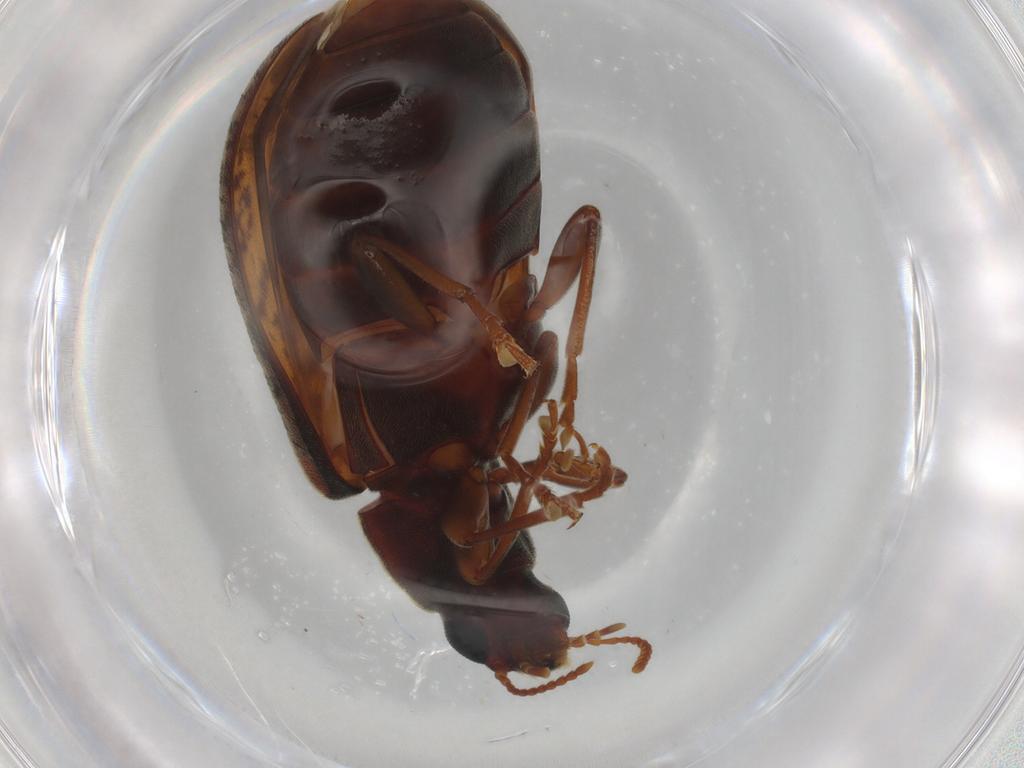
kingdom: Animalia
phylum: Arthropoda
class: Insecta
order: Coleoptera
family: Mycteridae
